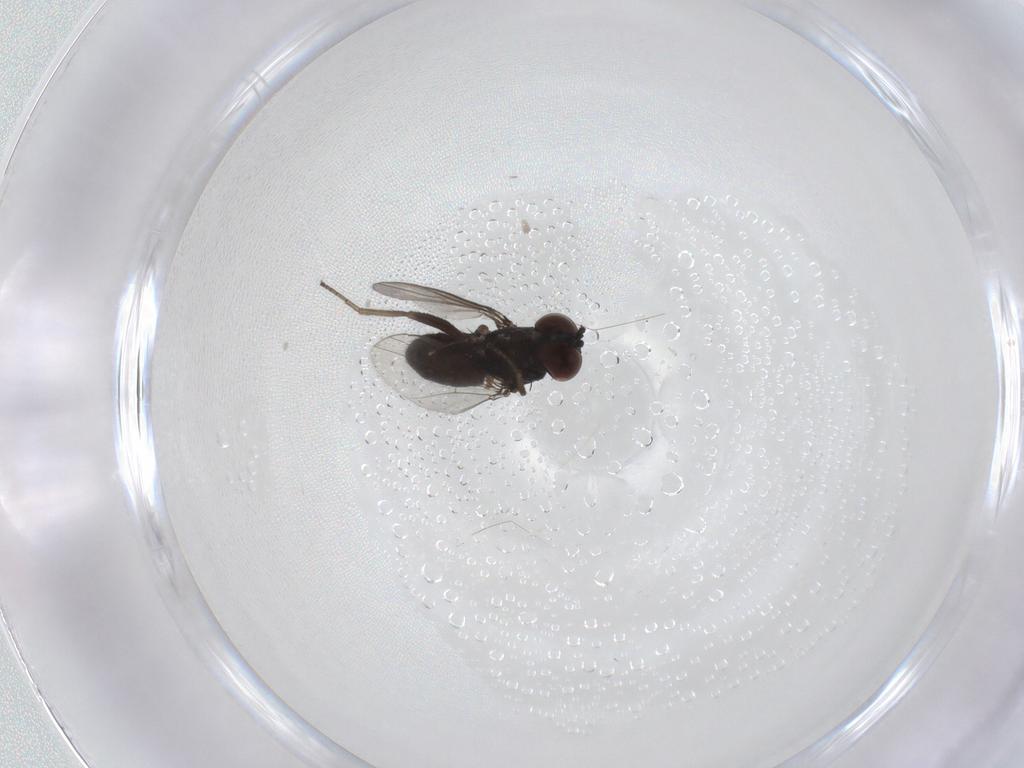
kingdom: Animalia
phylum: Arthropoda
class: Insecta
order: Diptera
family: Dolichopodidae
